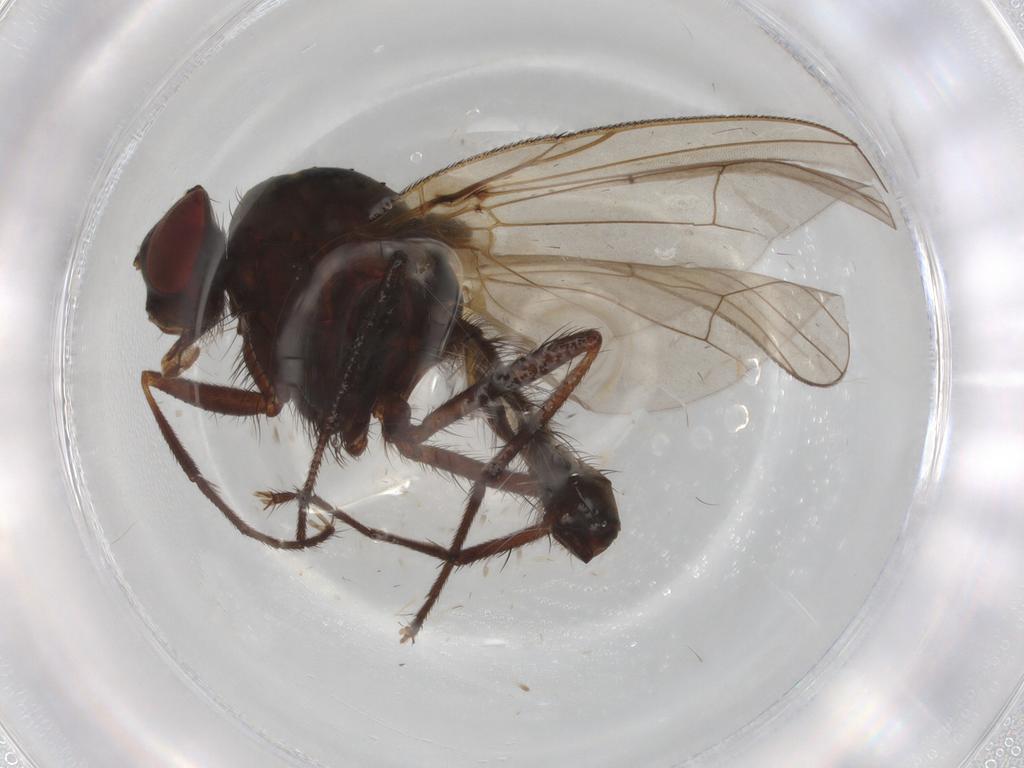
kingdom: Animalia
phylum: Arthropoda
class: Insecta
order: Diptera
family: Anthomyiidae
